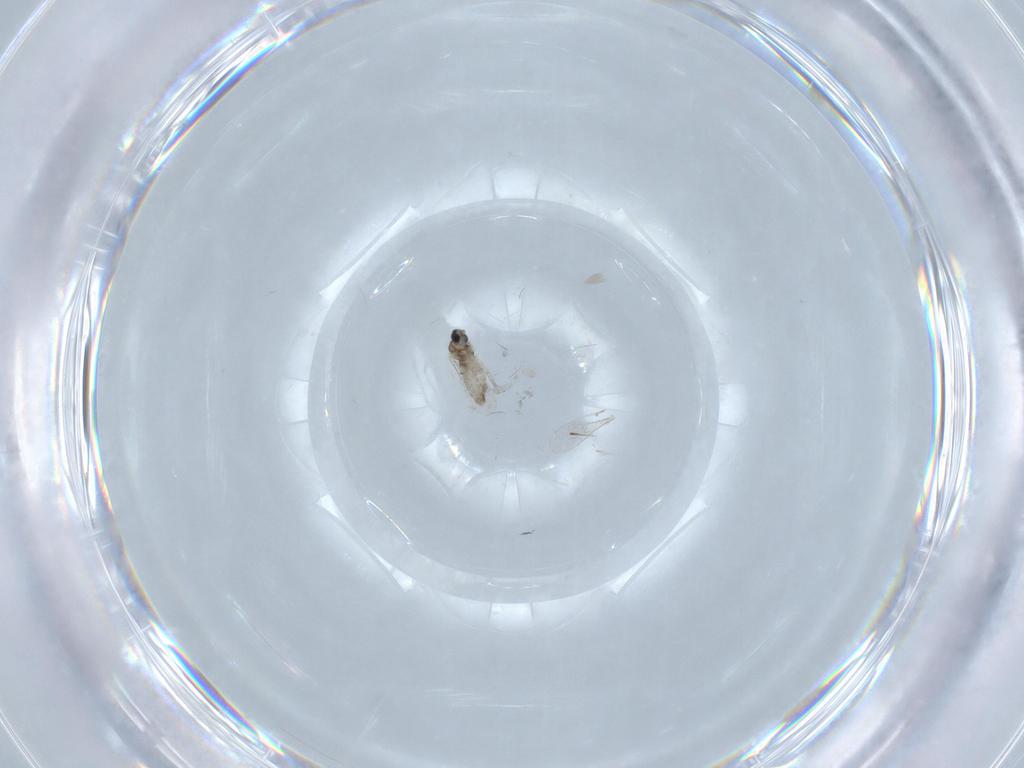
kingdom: Animalia
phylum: Arthropoda
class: Insecta
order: Diptera
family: Cecidomyiidae
